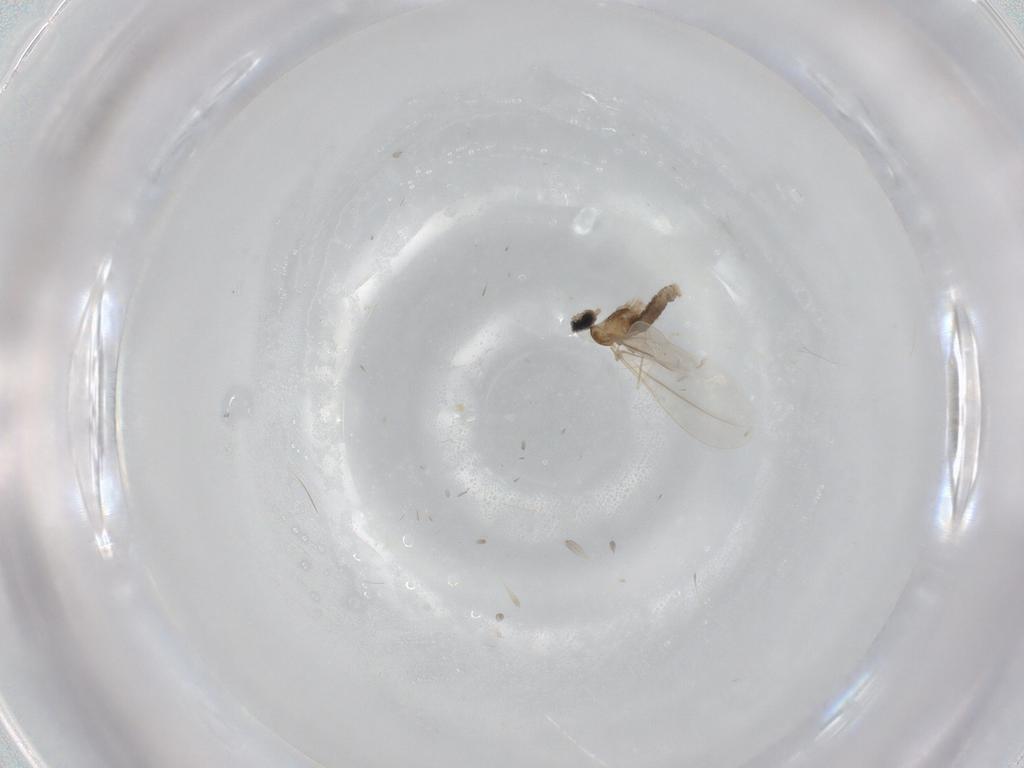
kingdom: Animalia
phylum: Arthropoda
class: Insecta
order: Diptera
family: Cecidomyiidae
